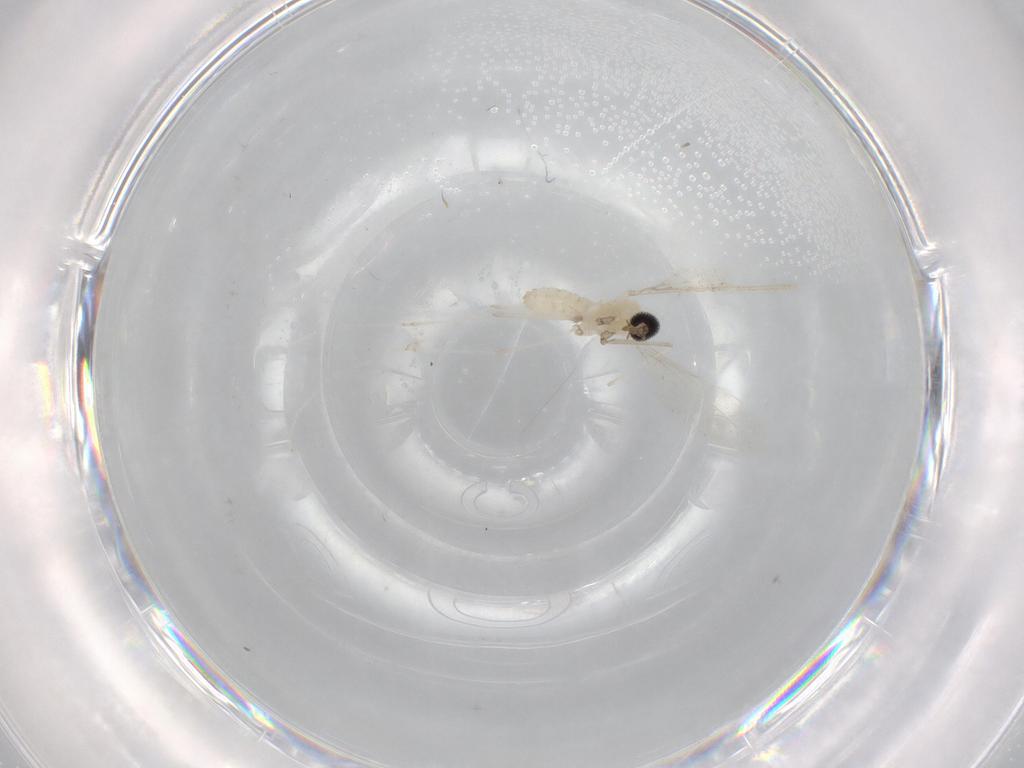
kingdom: Animalia
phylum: Arthropoda
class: Insecta
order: Diptera
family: Cecidomyiidae
